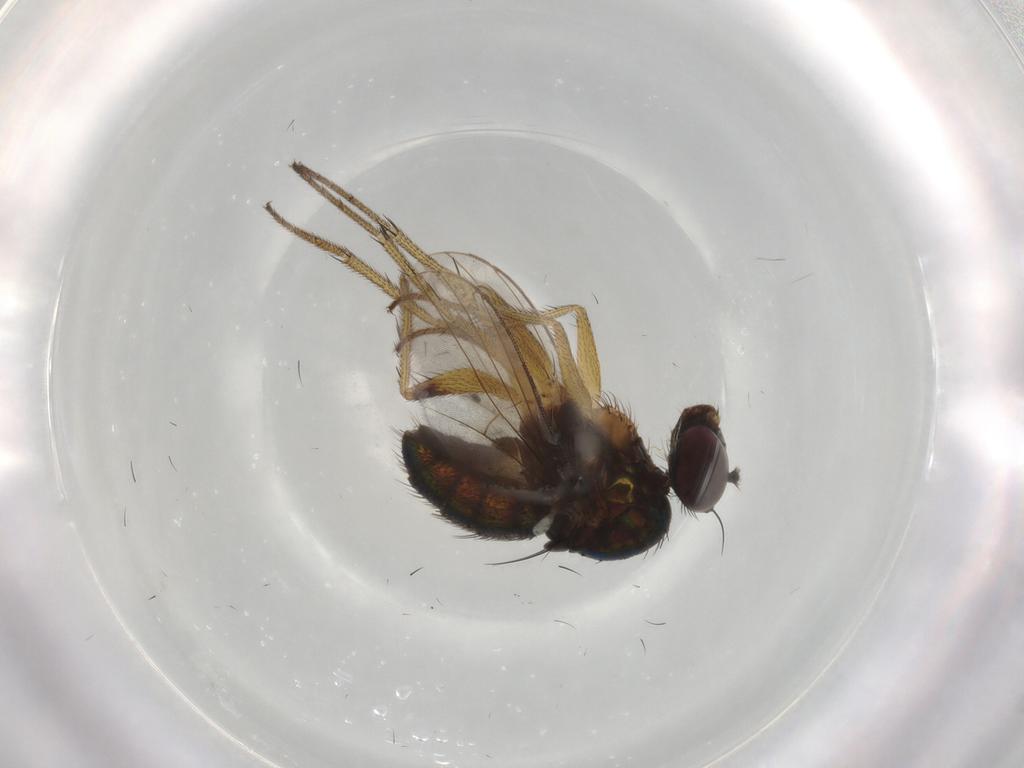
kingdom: Animalia
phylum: Arthropoda
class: Insecta
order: Diptera
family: Dolichopodidae
